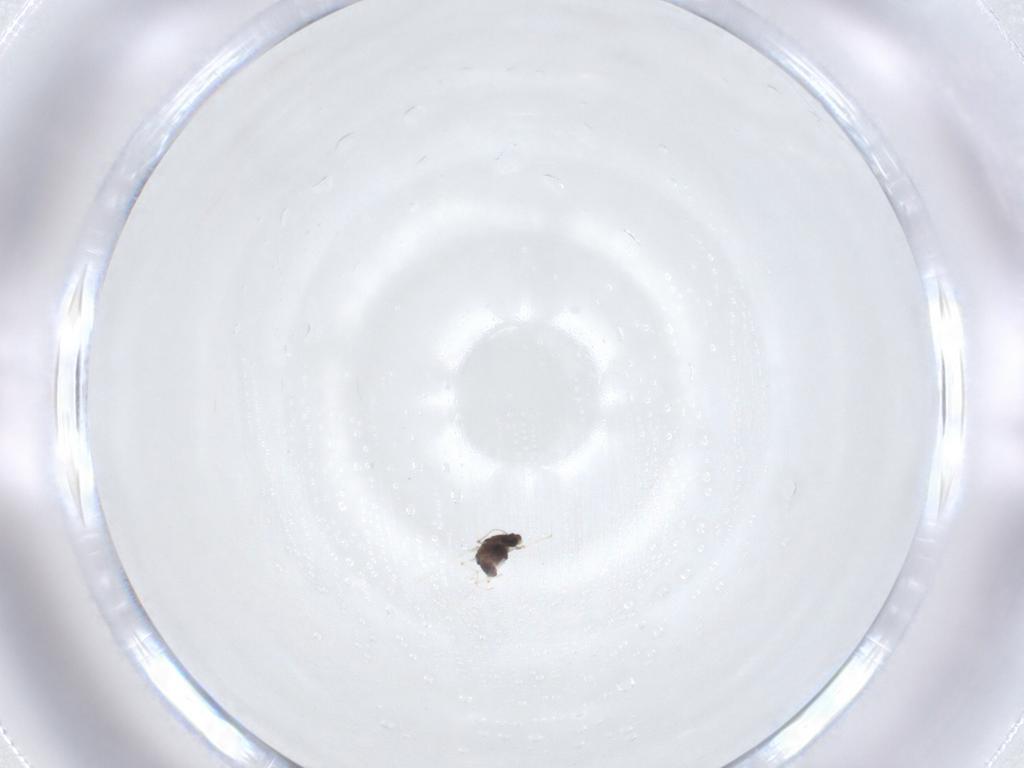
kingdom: Animalia
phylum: Arthropoda
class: Insecta
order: Diptera
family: Chironomidae
